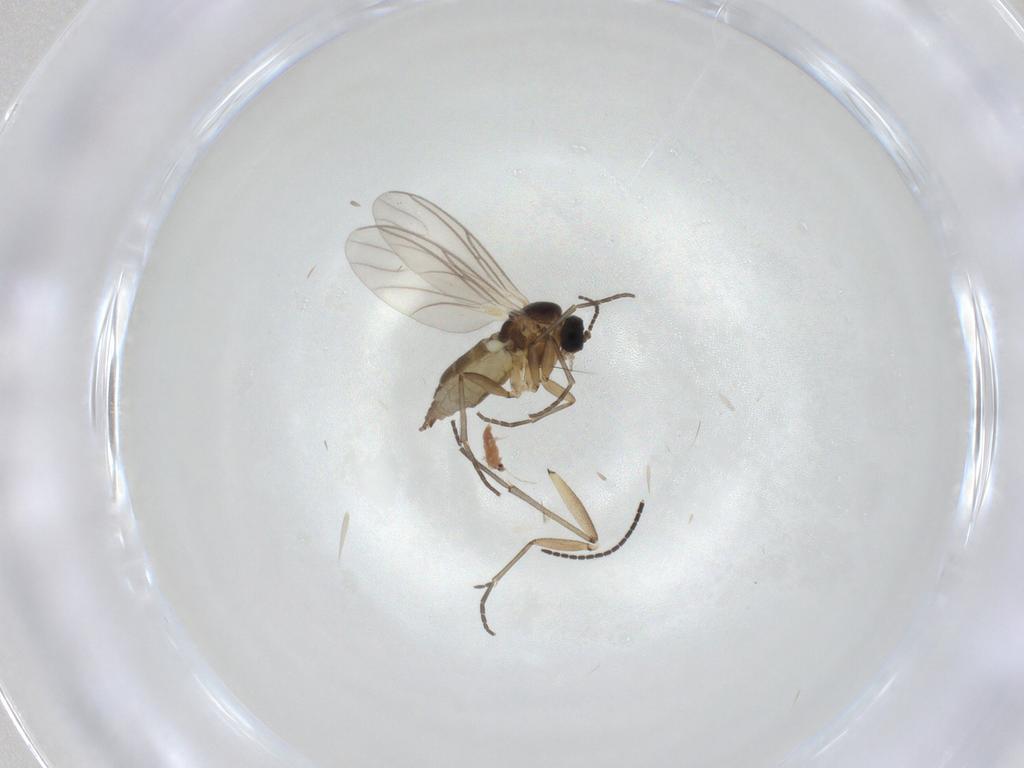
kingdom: Animalia
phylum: Arthropoda
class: Insecta
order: Diptera
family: Sciaridae
